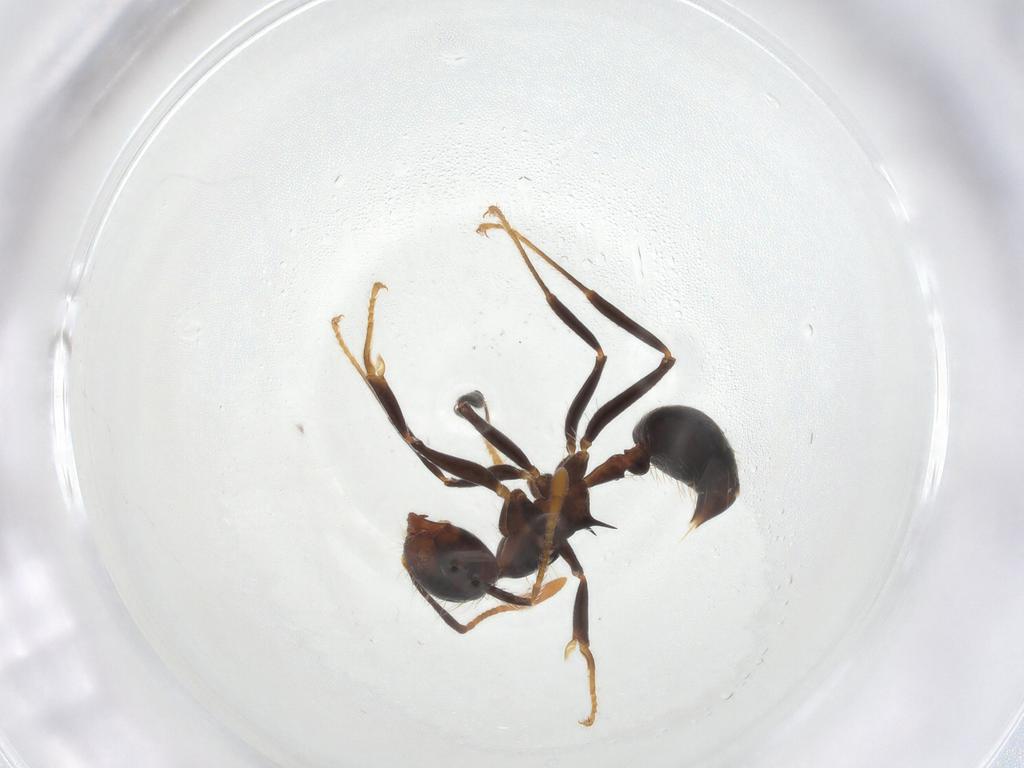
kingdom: Animalia
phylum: Arthropoda
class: Insecta
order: Hymenoptera
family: Formicidae
